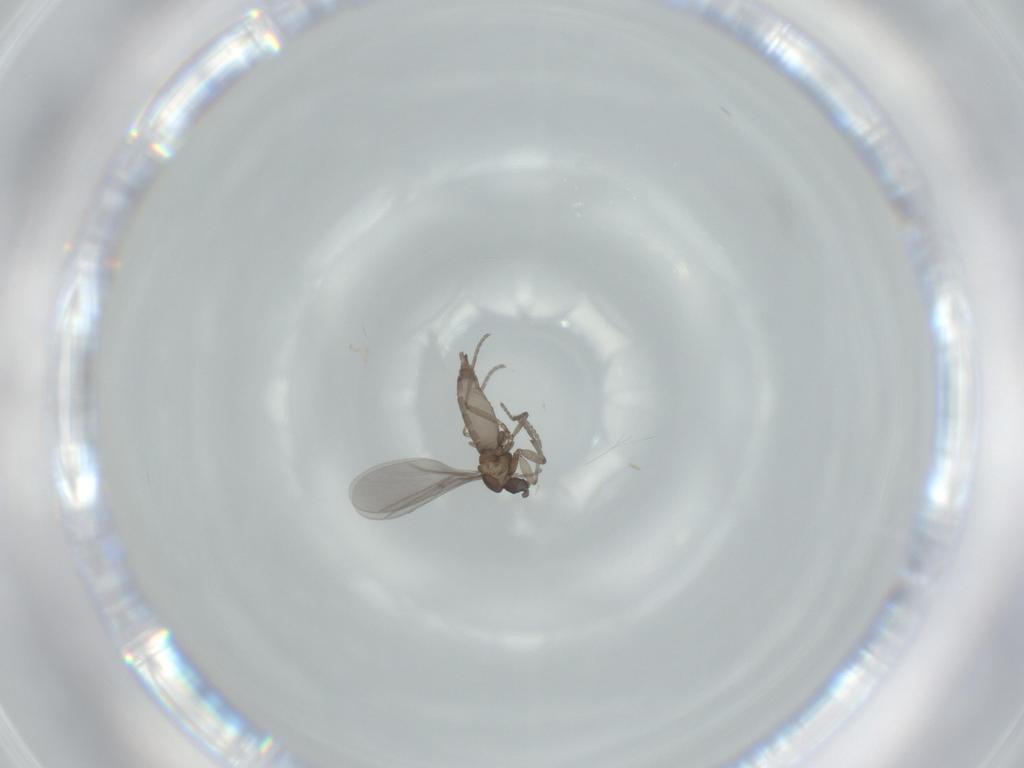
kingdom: Animalia
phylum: Arthropoda
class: Insecta
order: Diptera
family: Sciaridae
